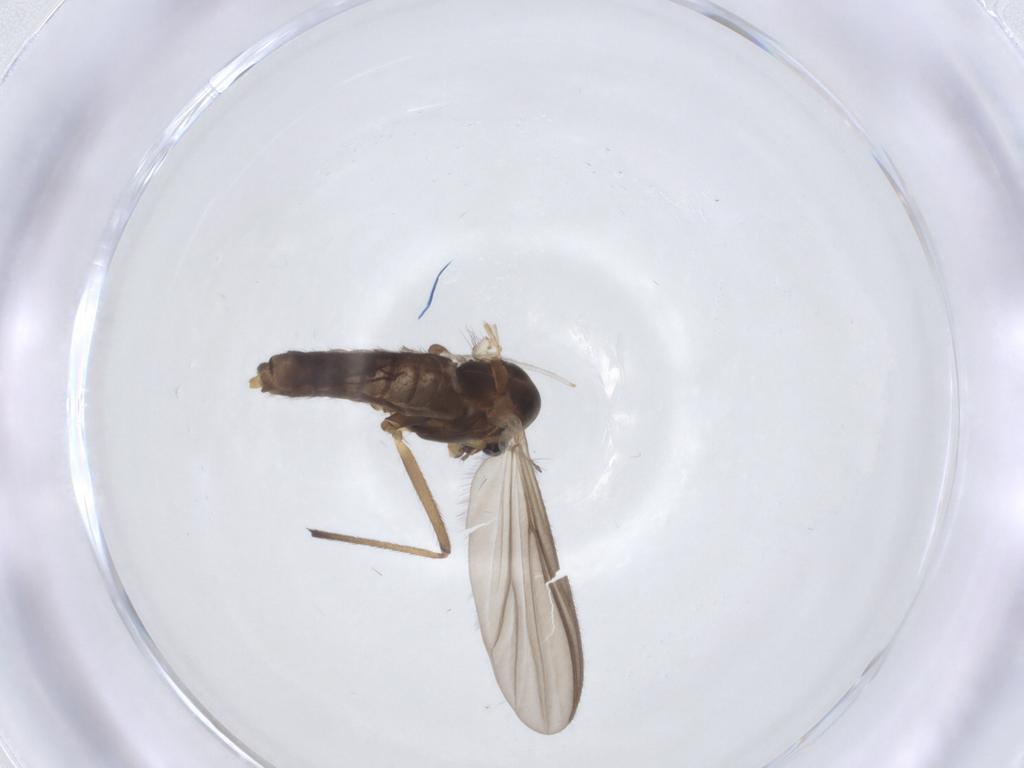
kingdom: Animalia
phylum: Arthropoda
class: Insecta
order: Diptera
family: Chironomidae
